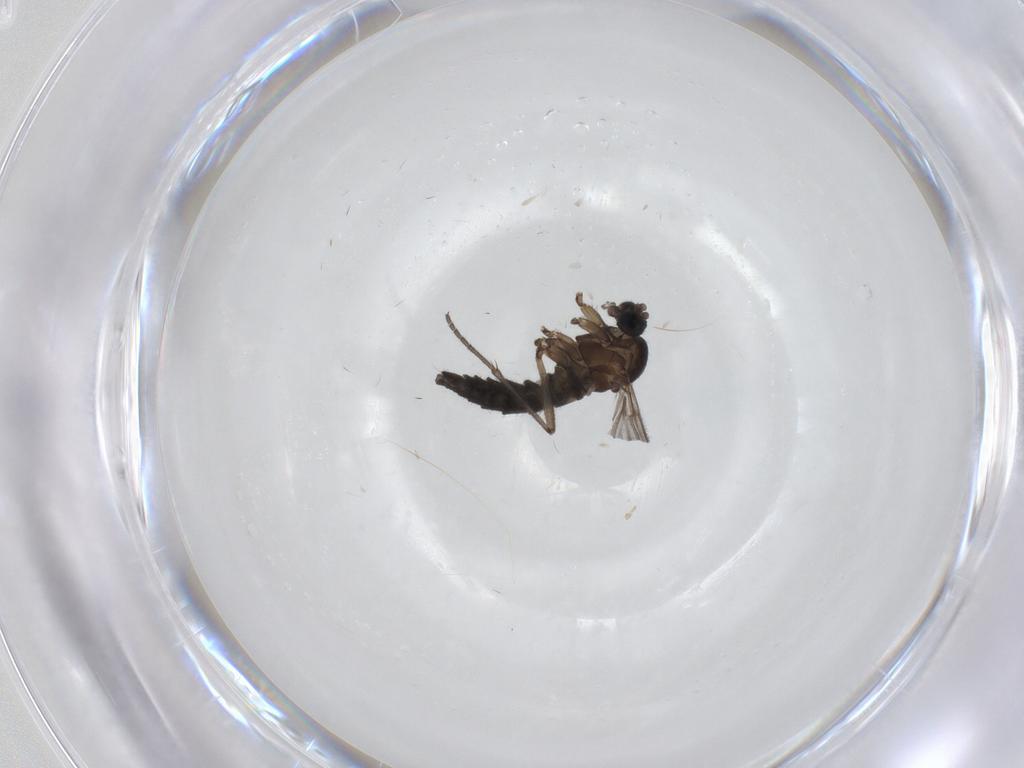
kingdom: Animalia
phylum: Arthropoda
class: Insecta
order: Diptera
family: Sciaridae
